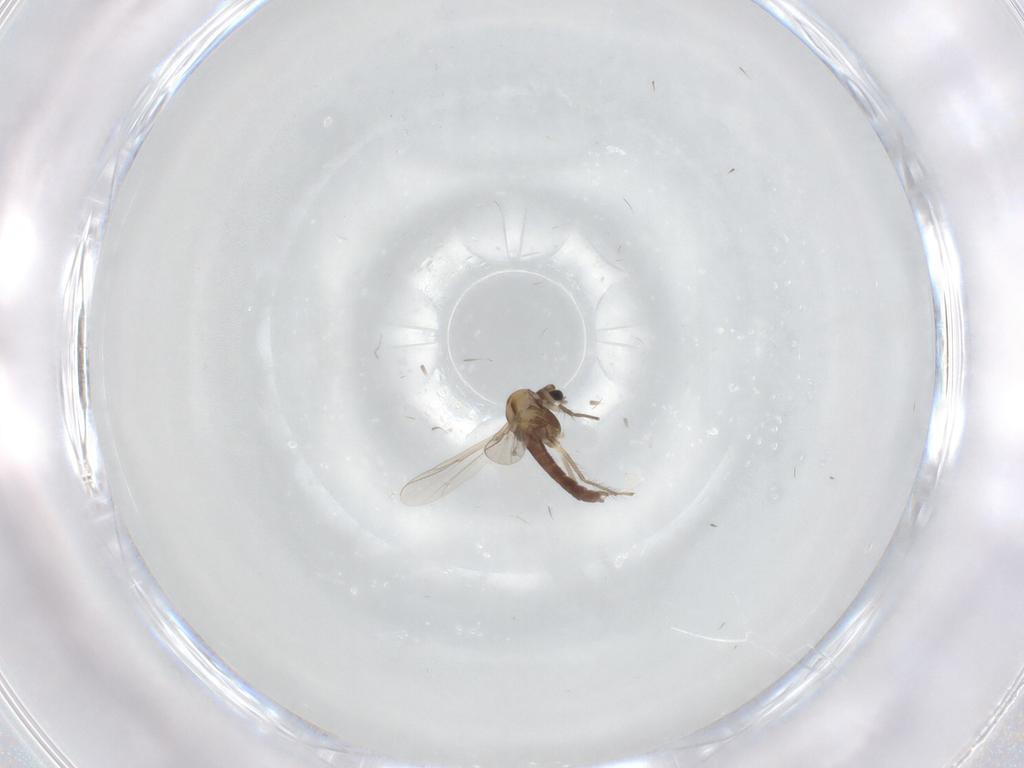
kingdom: Animalia
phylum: Arthropoda
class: Insecta
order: Diptera
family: Chironomidae
